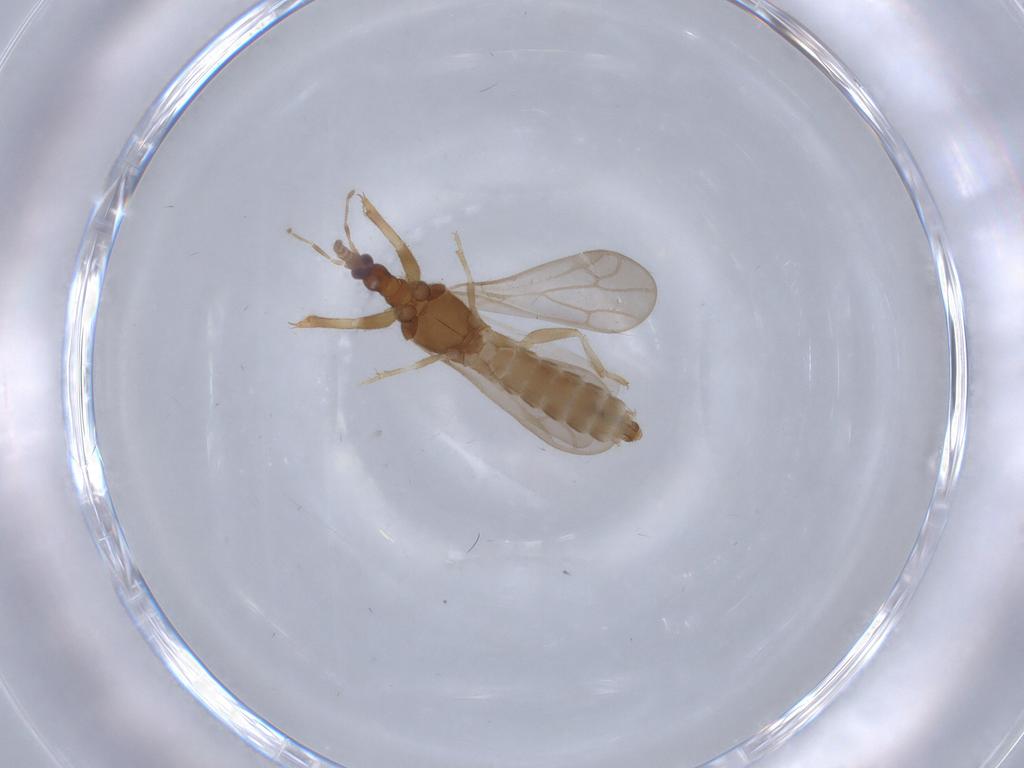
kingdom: Animalia
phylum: Arthropoda
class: Insecta
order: Hemiptera
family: Enicocephalidae
